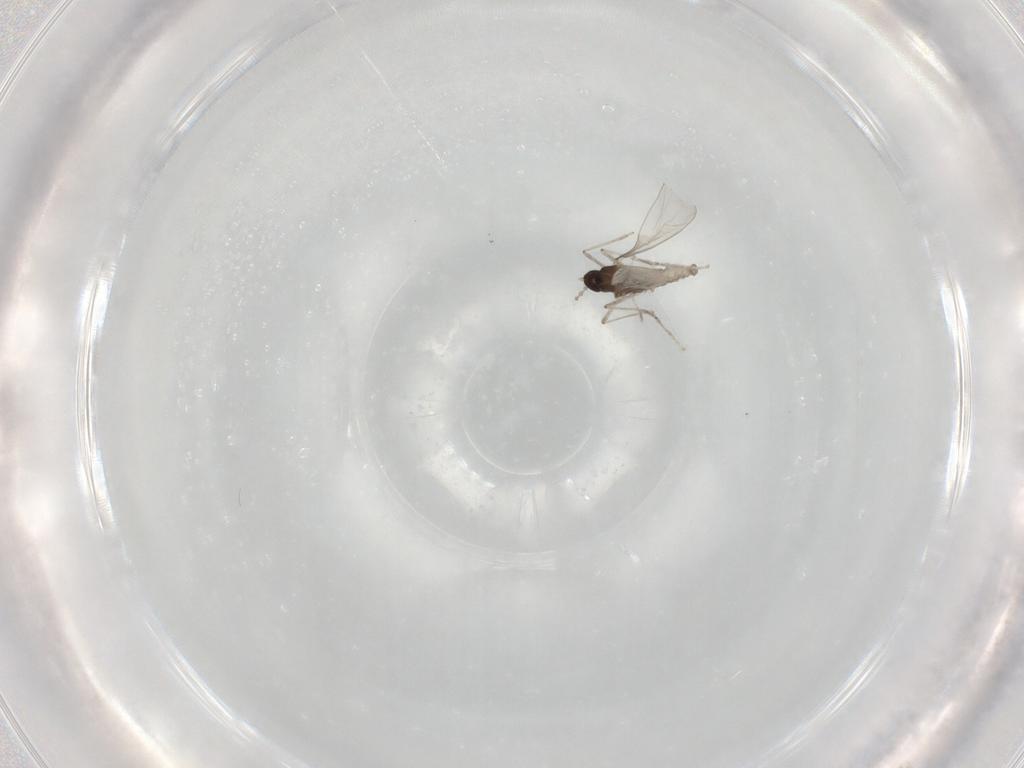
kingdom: Animalia
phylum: Arthropoda
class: Insecta
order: Diptera
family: Cecidomyiidae
